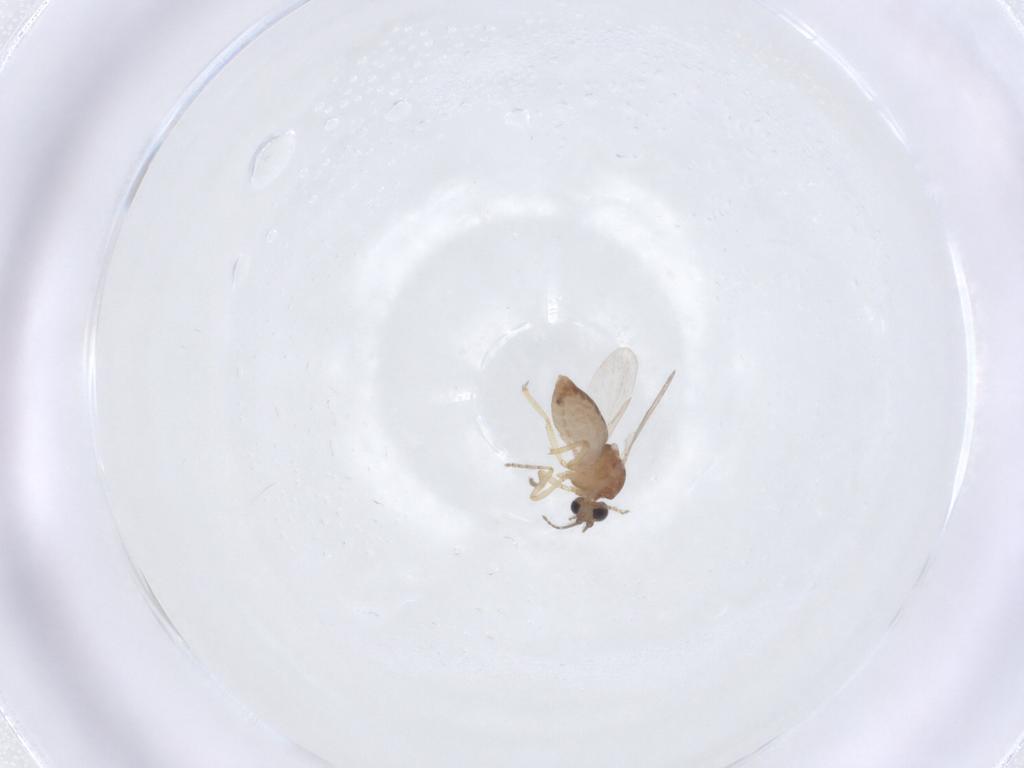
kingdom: Animalia
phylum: Arthropoda
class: Insecta
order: Diptera
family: Ceratopogonidae
